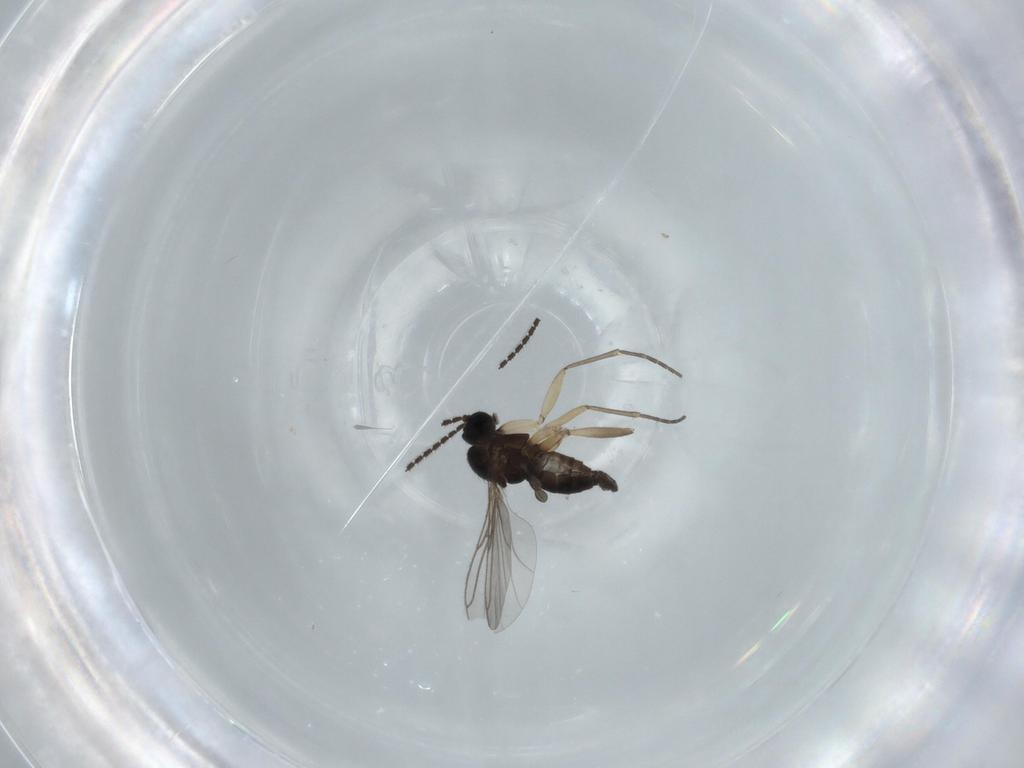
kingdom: Animalia
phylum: Arthropoda
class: Insecta
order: Diptera
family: Sciaridae
